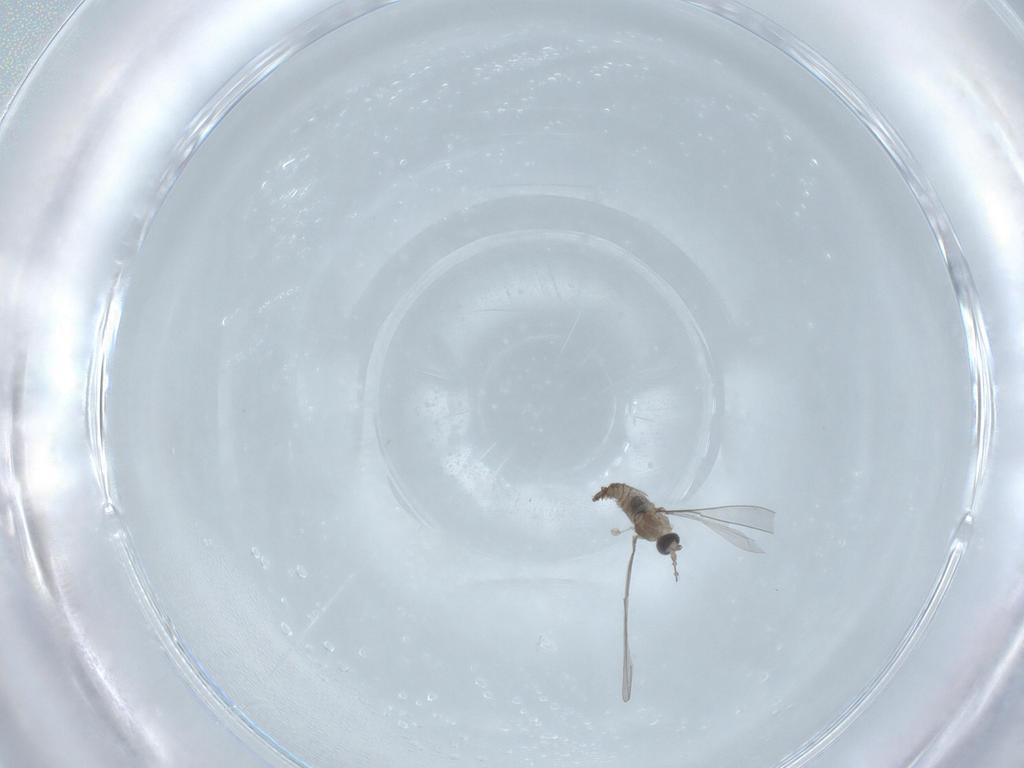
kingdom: Animalia
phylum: Arthropoda
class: Insecta
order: Diptera
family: Cecidomyiidae
